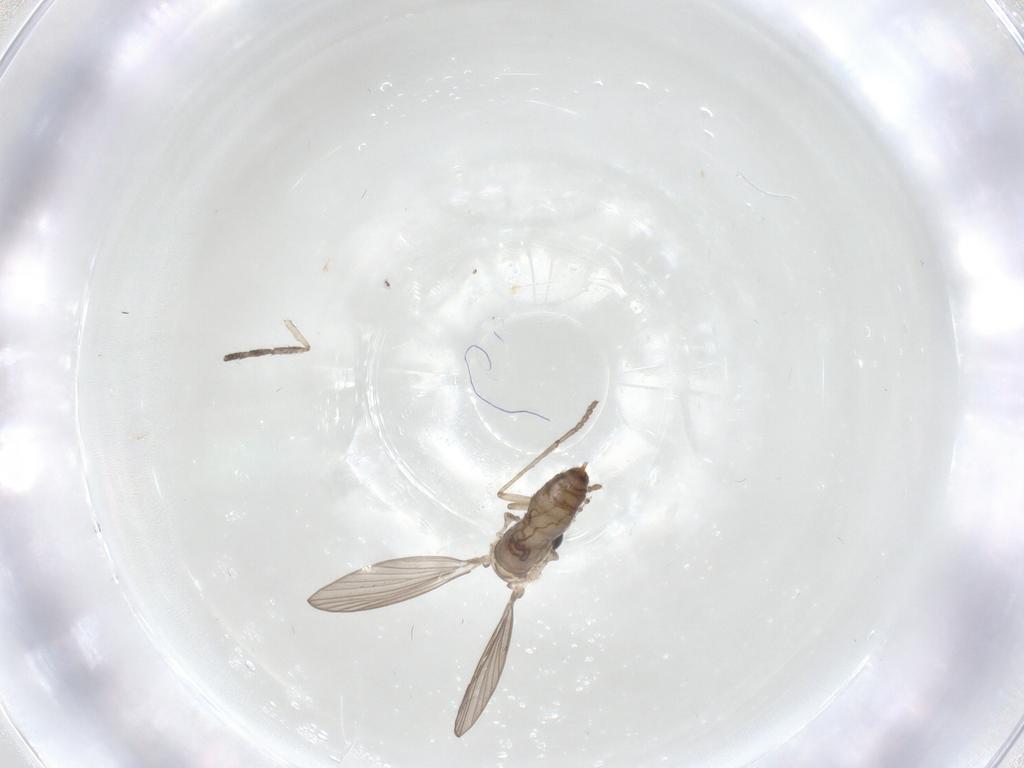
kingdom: Animalia
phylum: Arthropoda
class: Insecta
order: Diptera
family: Psychodidae
